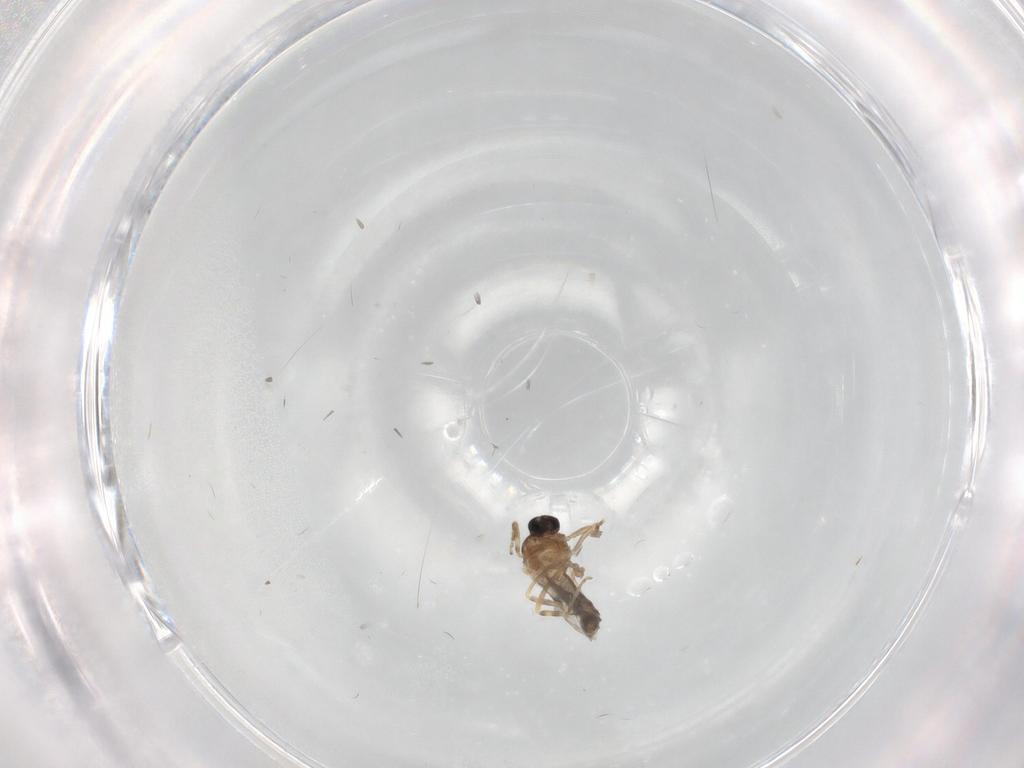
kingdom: Animalia
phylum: Arthropoda
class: Insecta
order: Diptera
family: Ceratopogonidae
